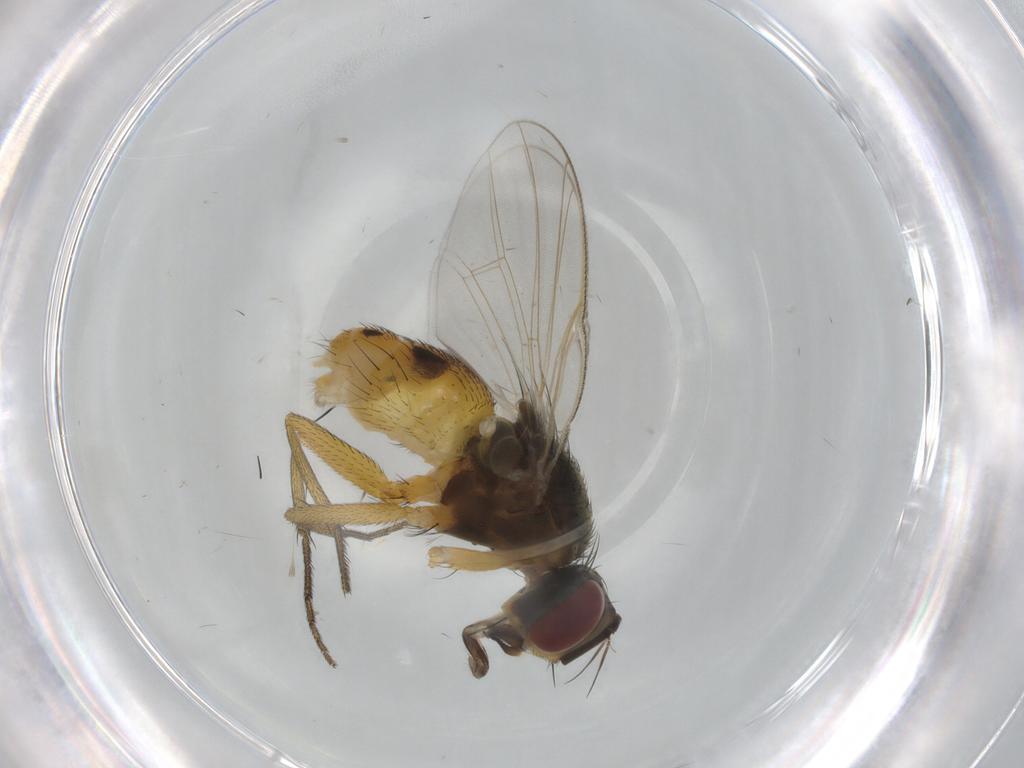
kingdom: Animalia
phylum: Arthropoda
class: Insecta
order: Diptera
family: Muscidae
